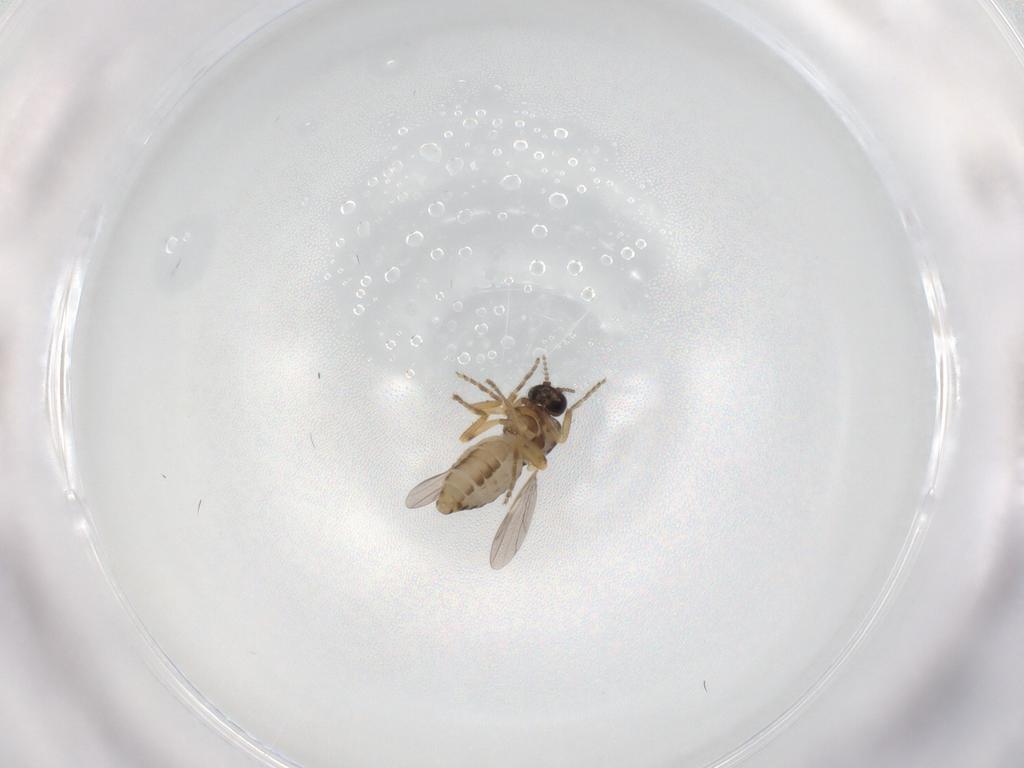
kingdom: Animalia
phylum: Arthropoda
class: Insecta
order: Diptera
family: Ceratopogonidae
